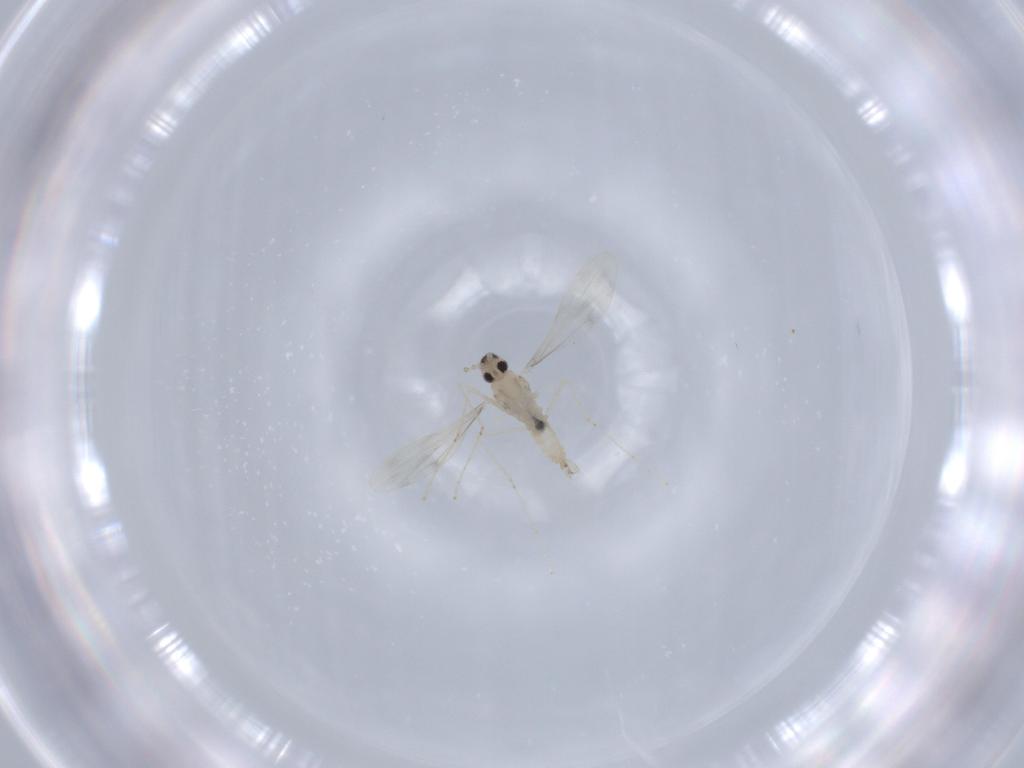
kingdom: Animalia
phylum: Arthropoda
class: Insecta
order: Diptera
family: Cecidomyiidae
